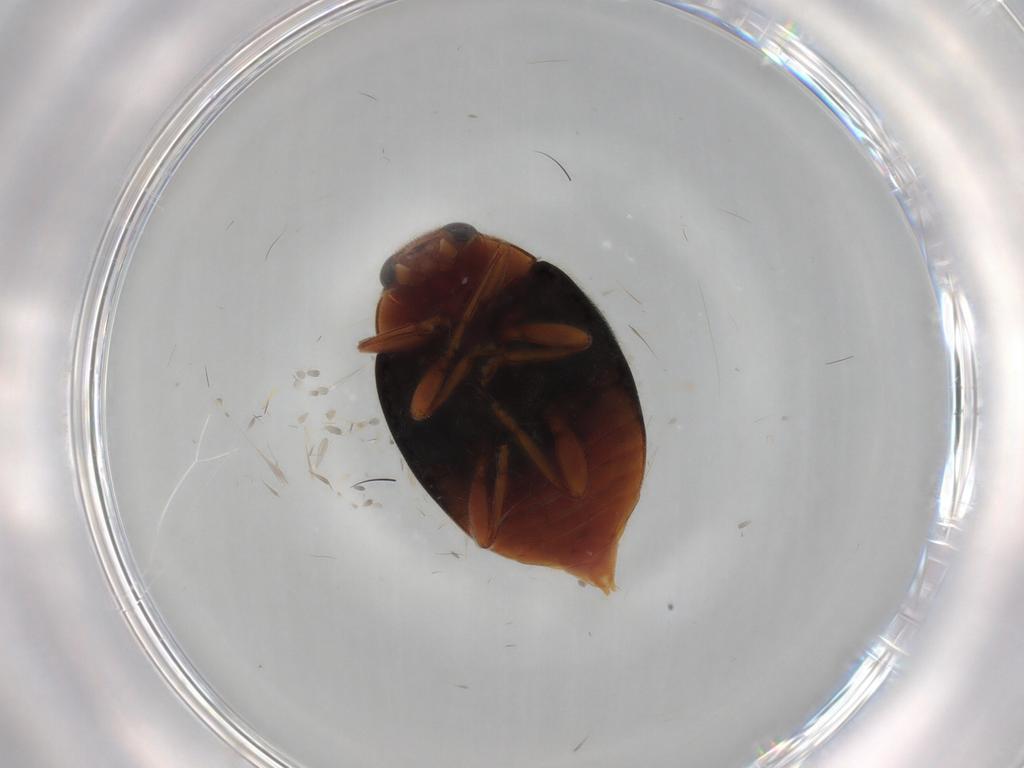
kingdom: Animalia
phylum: Arthropoda
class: Insecta
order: Coleoptera
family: Coccinellidae
